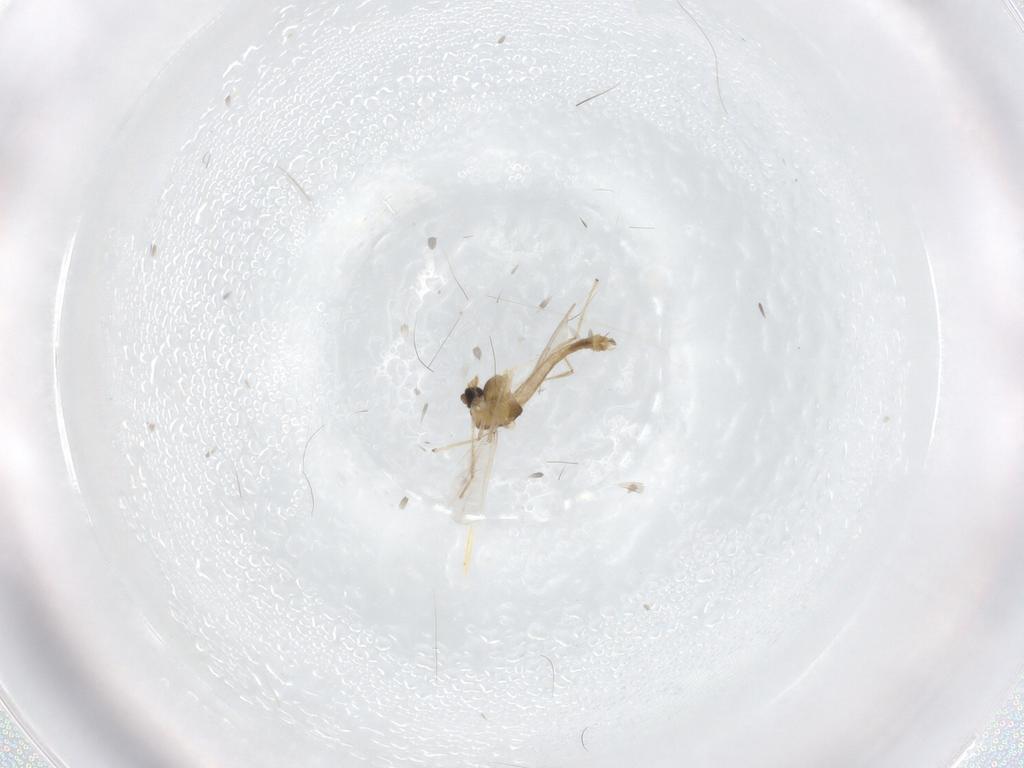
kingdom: Animalia
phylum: Arthropoda
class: Insecta
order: Diptera
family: Chironomidae
